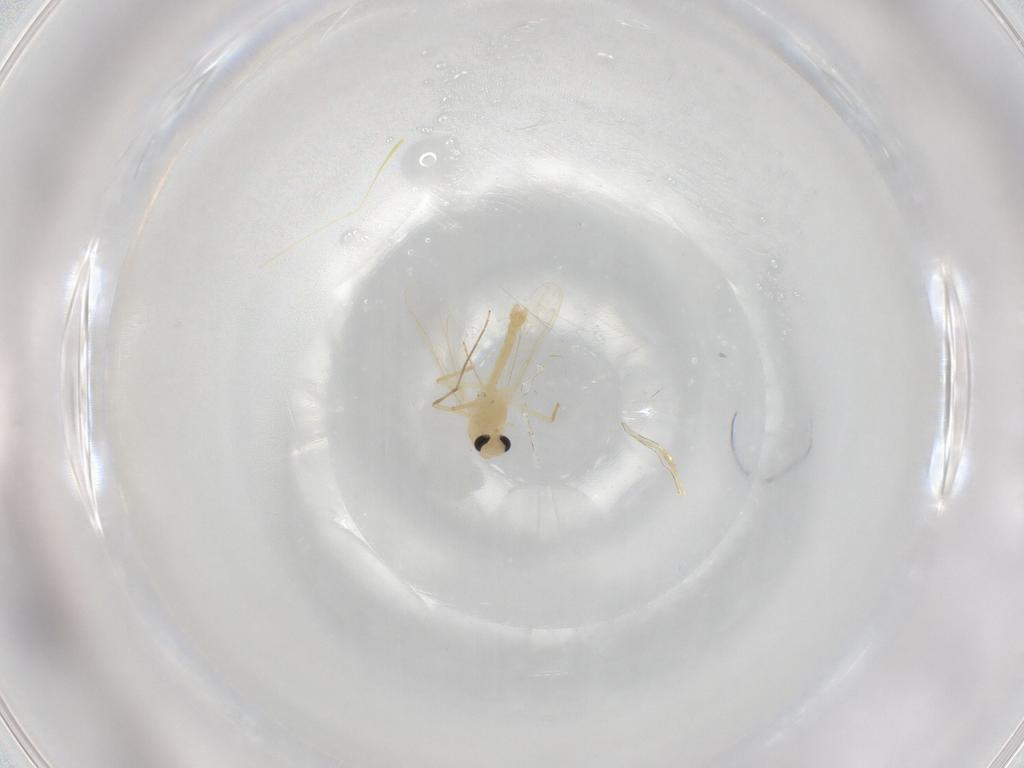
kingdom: Animalia
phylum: Arthropoda
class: Insecta
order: Diptera
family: Chironomidae
